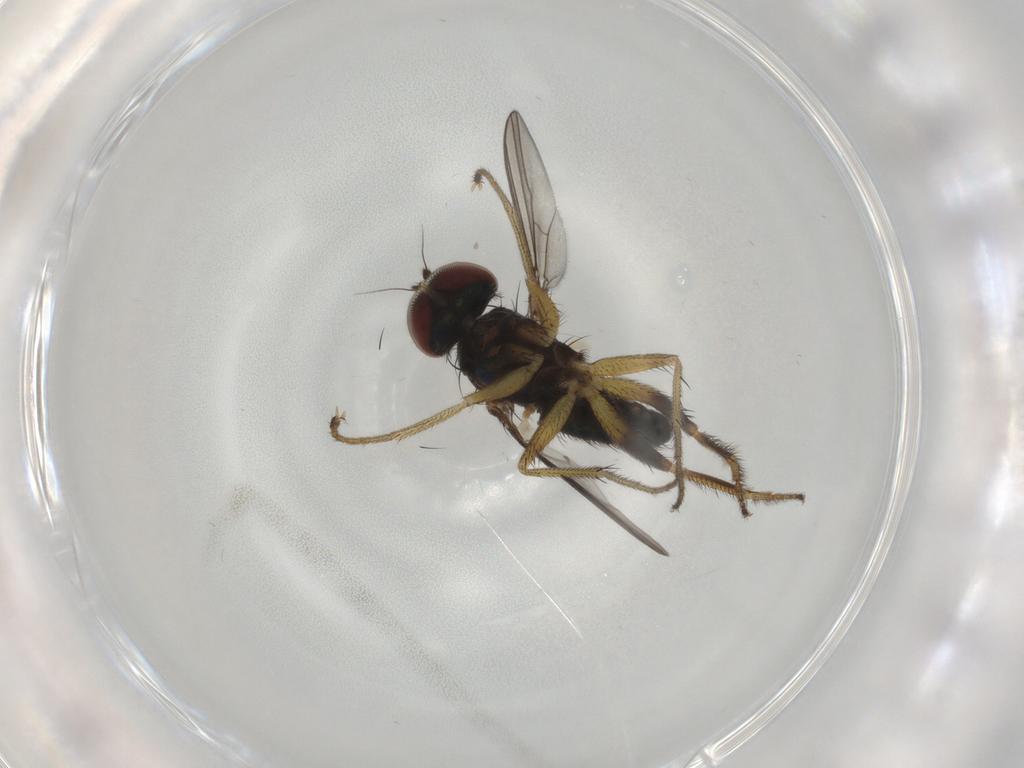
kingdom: Animalia
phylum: Arthropoda
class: Insecta
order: Diptera
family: Dolichopodidae
